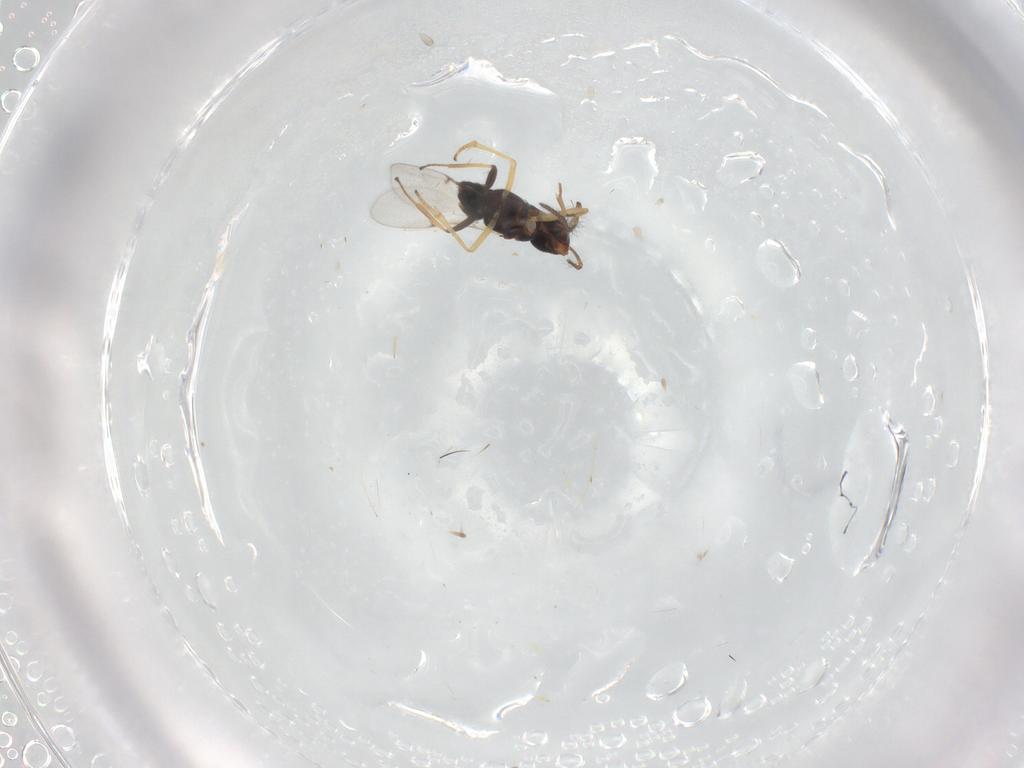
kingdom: Animalia
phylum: Arthropoda
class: Insecta
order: Hymenoptera
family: Encyrtidae
